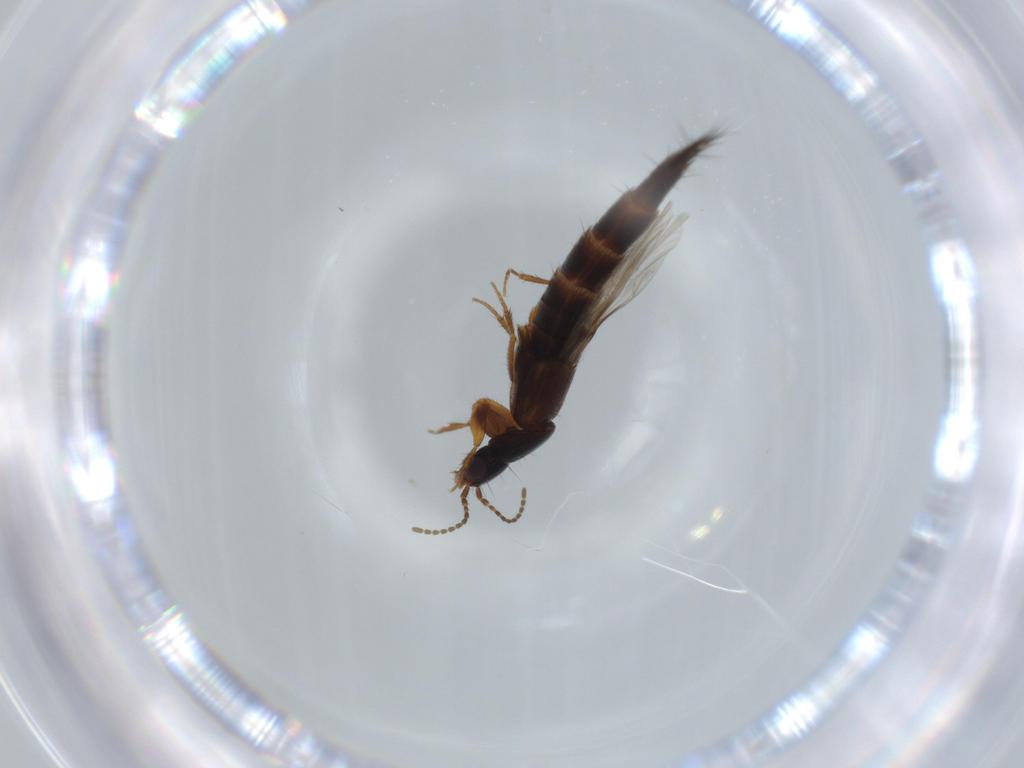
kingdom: Animalia
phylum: Arthropoda
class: Insecta
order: Coleoptera
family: Staphylinidae
